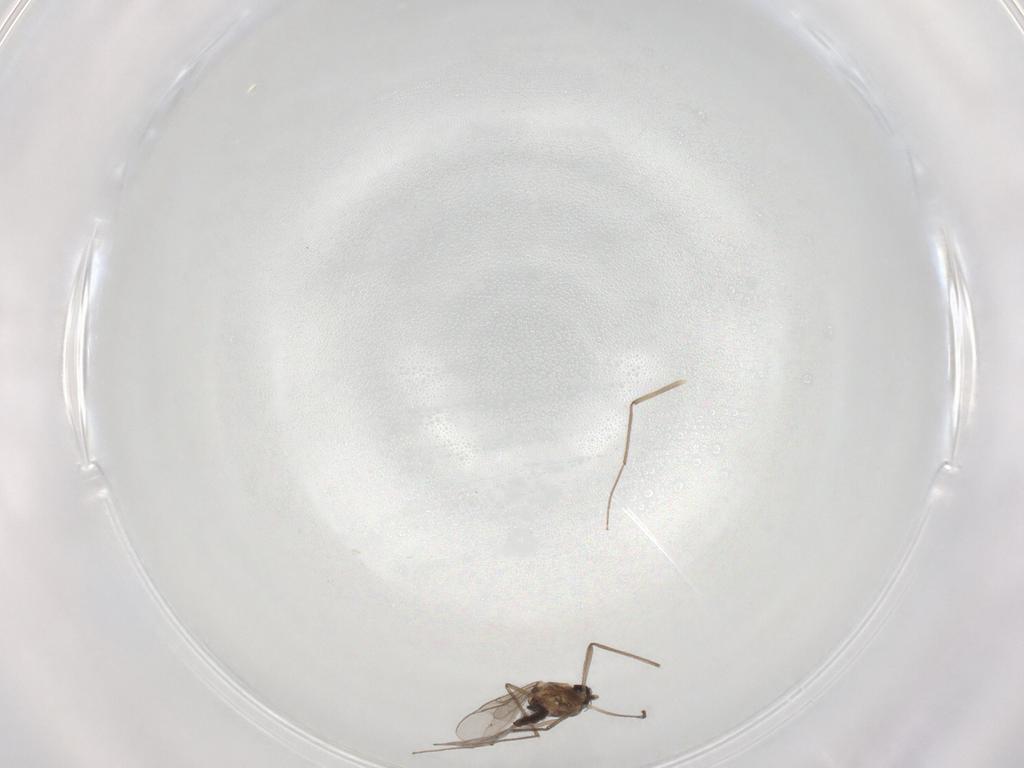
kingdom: Animalia
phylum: Arthropoda
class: Insecta
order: Diptera
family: Chironomidae
